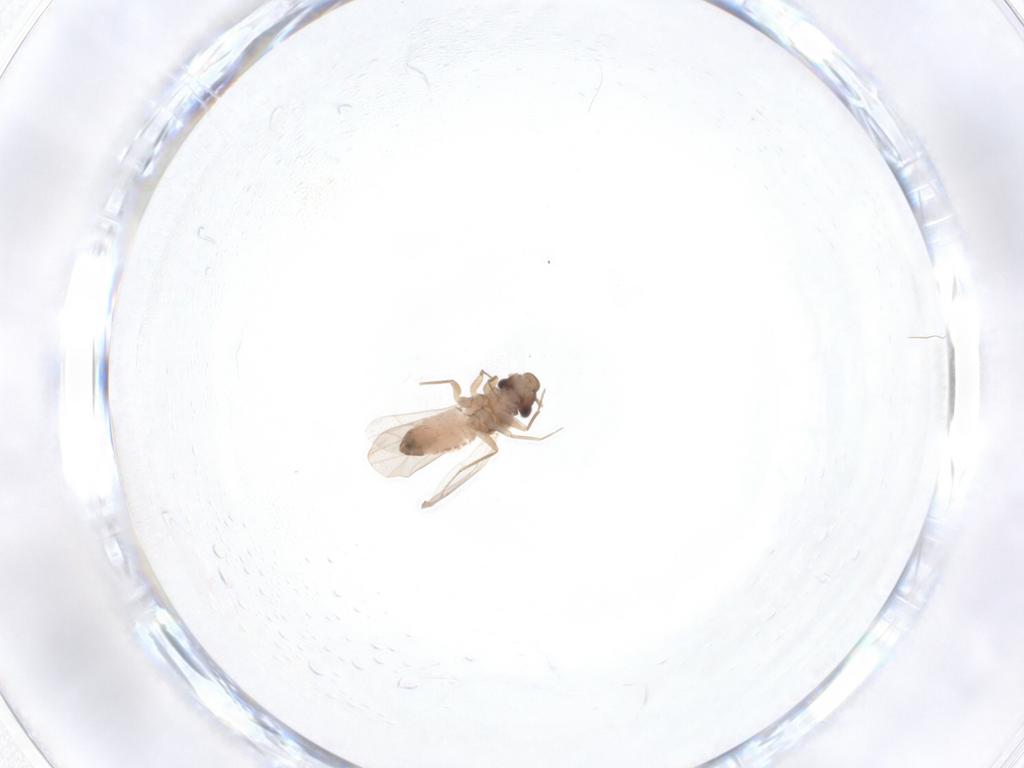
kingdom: Animalia
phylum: Arthropoda
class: Insecta
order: Psocodea
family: Lepidopsocidae
